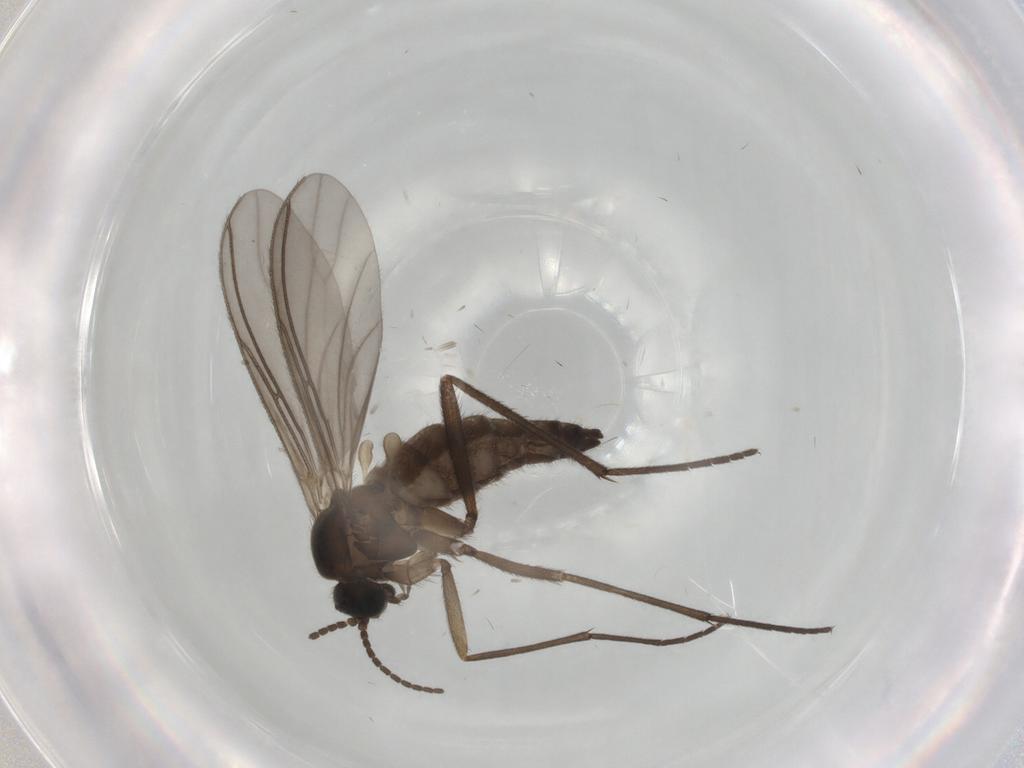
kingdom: Animalia
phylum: Arthropoda
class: Insecta
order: Diptera
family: Sciaridae
